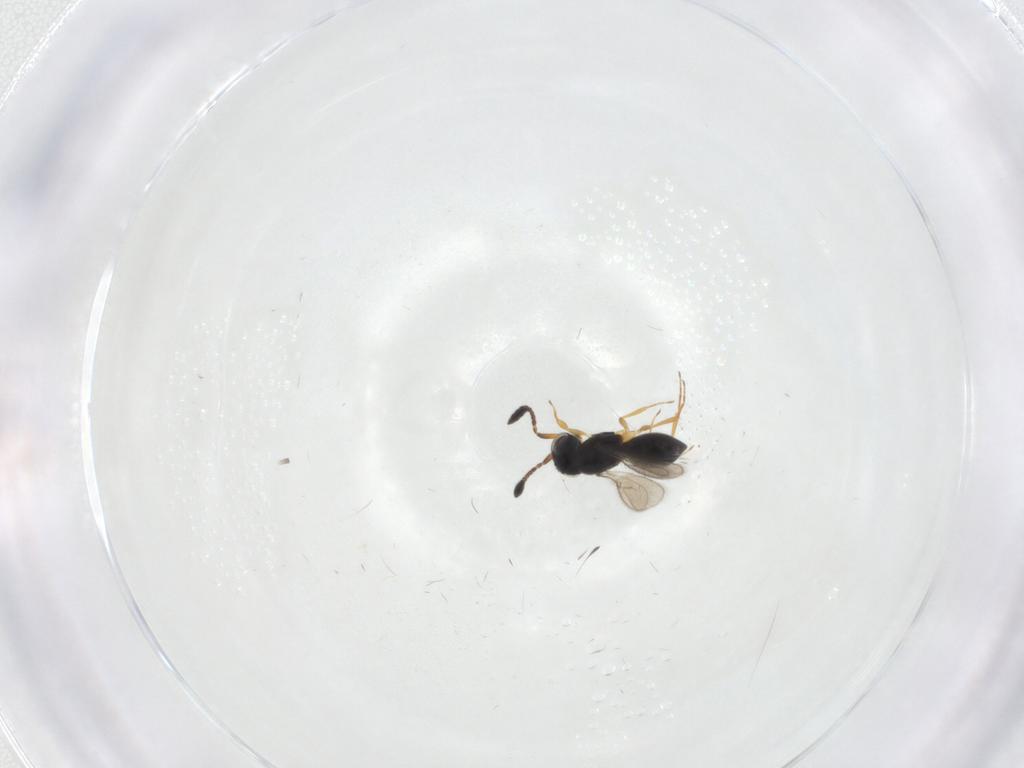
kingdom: Animalia
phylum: Arthropoda
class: Insecta
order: Hymenoptera
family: Scelionidae
